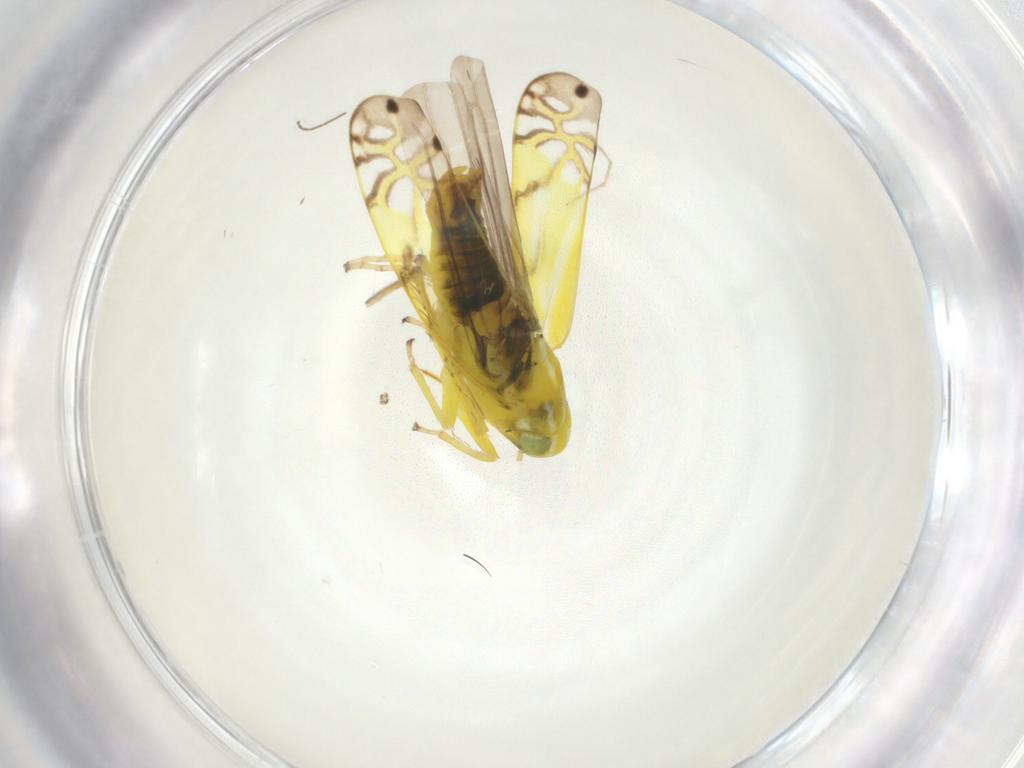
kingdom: Animalia
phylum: Arthropoda
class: Insecta
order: Hemiptera
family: Cicadellidae
